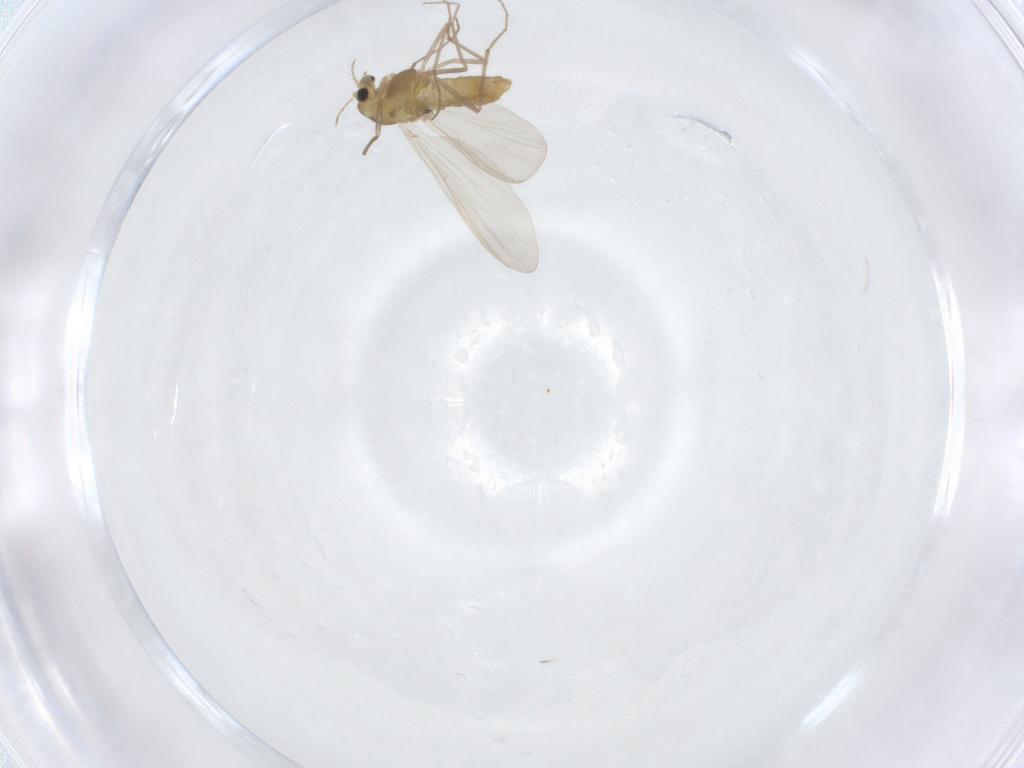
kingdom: Animalia
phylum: Arthropoda
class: Insecta
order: Diptera
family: Chironomidae
